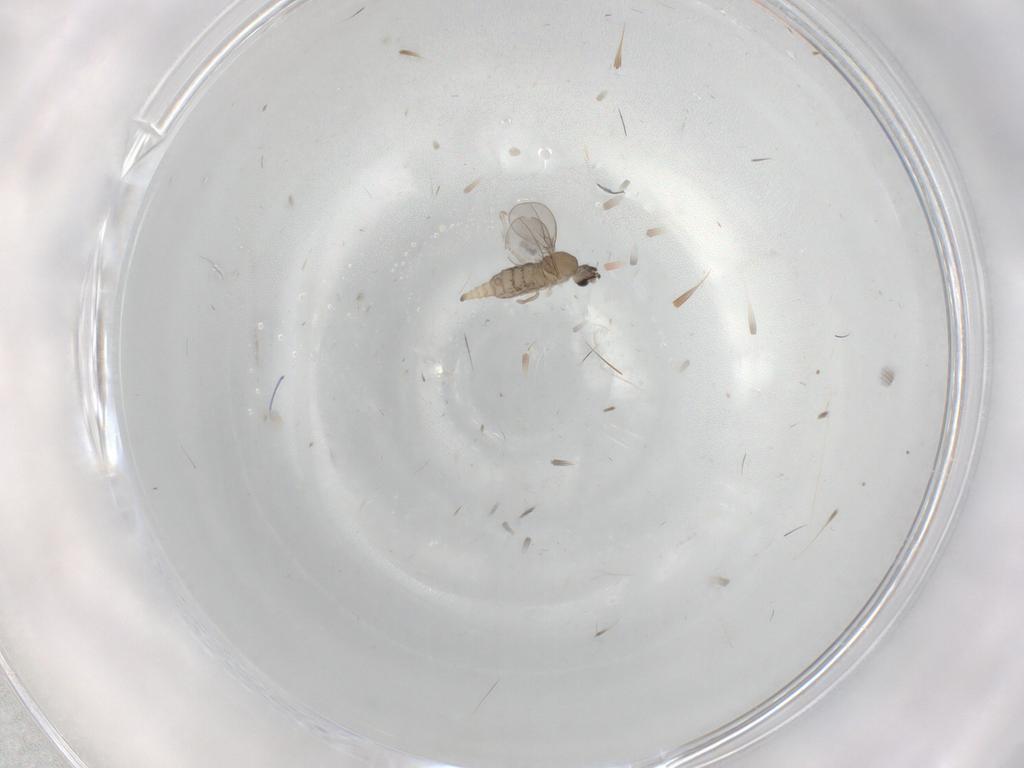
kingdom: Animalia
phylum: Arthropoda
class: Insecta
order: Diptera
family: Cecidomyiidae
